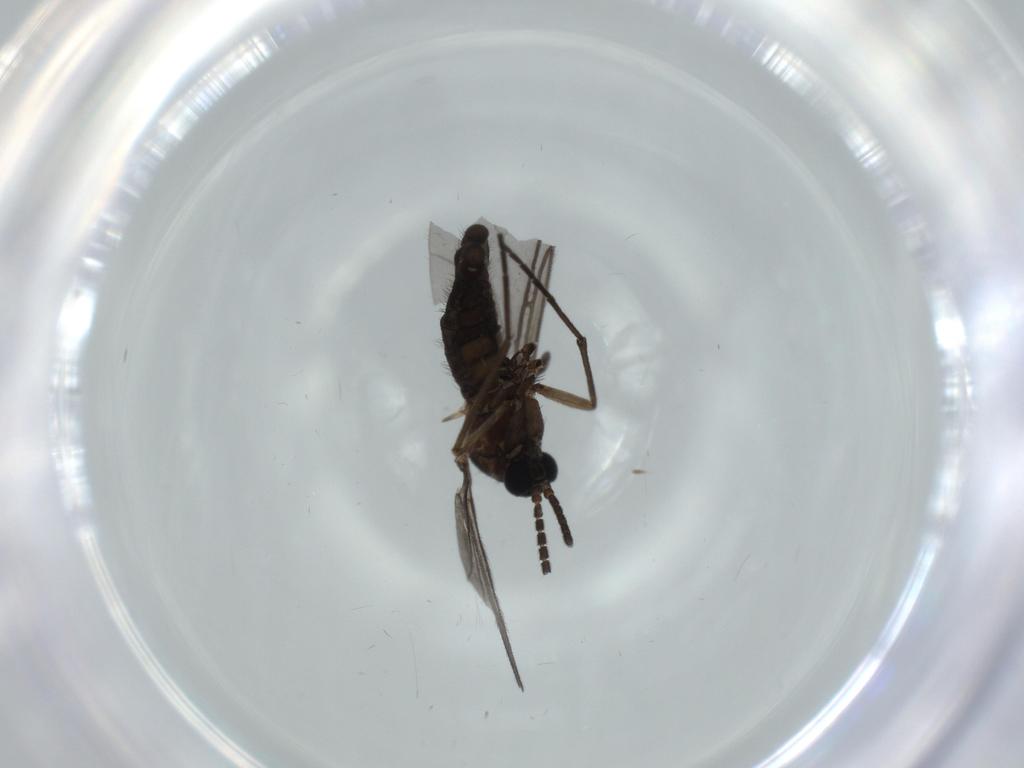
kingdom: Animalia
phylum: Arthropoda
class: Insecta
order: Diptera
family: Sciaridae
